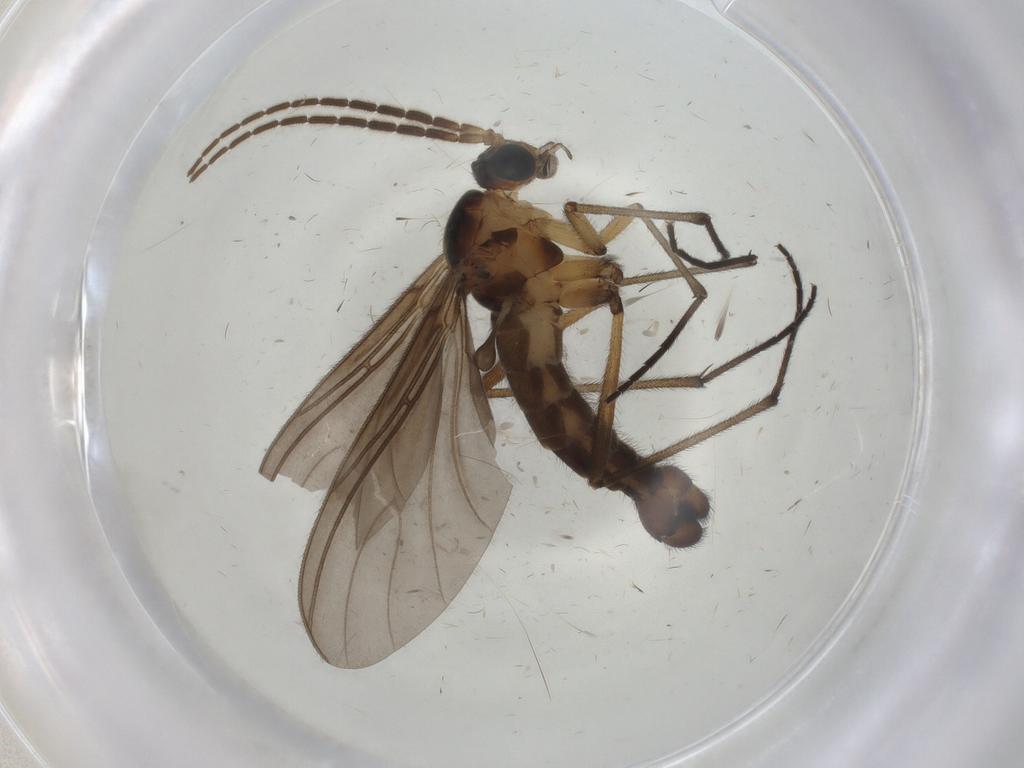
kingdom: Animalia
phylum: Arthropoda
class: Insecta
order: Diptera
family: Sciaridae
